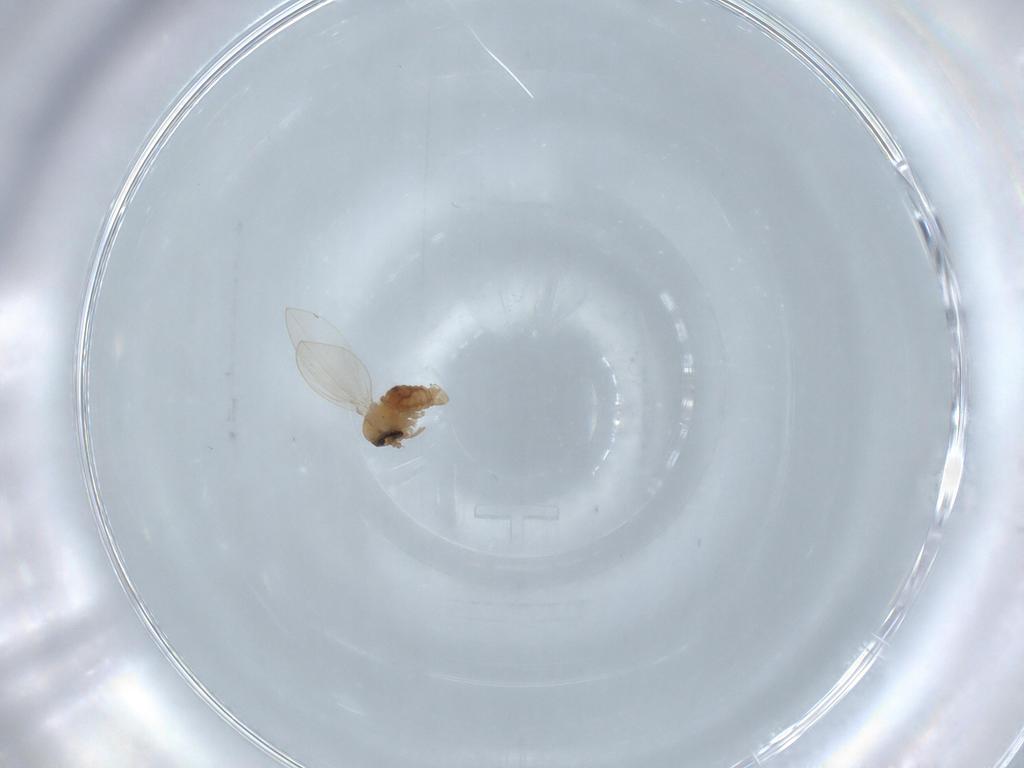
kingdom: Animalia
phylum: Arthropoda
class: Insecta
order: Diptera
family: Psychodidae
